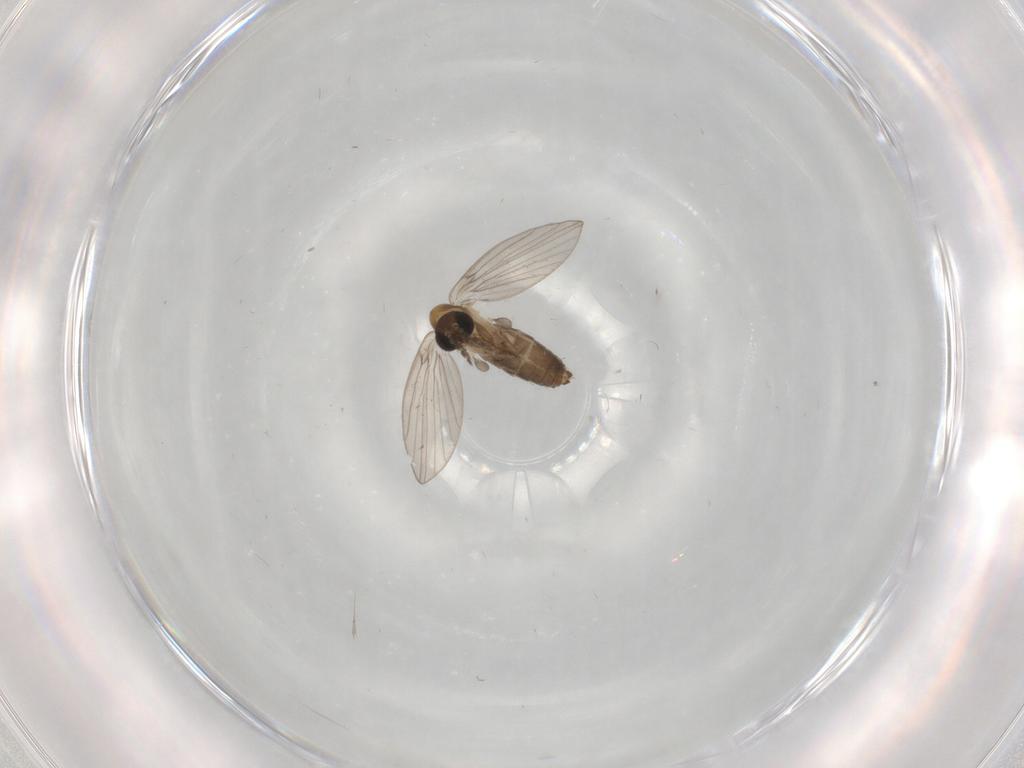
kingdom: Animalia
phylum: Arthropoda
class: Insecta
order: Diptera
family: Psychodidae
